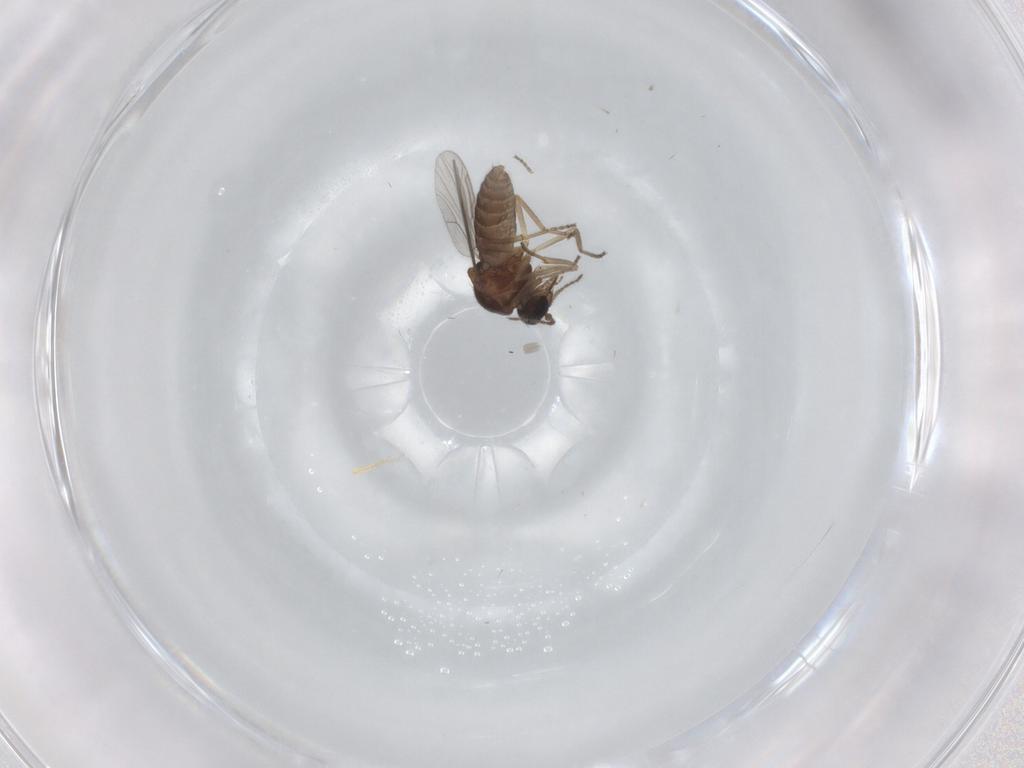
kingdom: Animalia
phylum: Arthropoda
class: Insecta
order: Diptera
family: Ceratopogonidae
